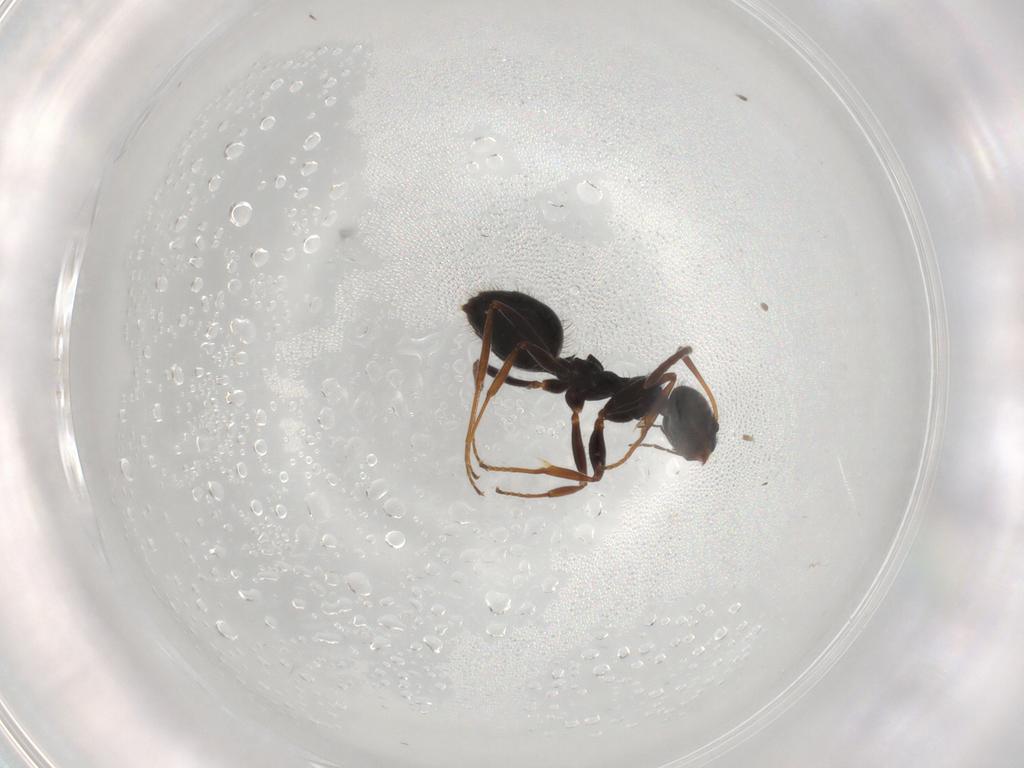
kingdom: Animalia
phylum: Arthropoda
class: Insecta
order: Hymenoptera
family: Formicidae
